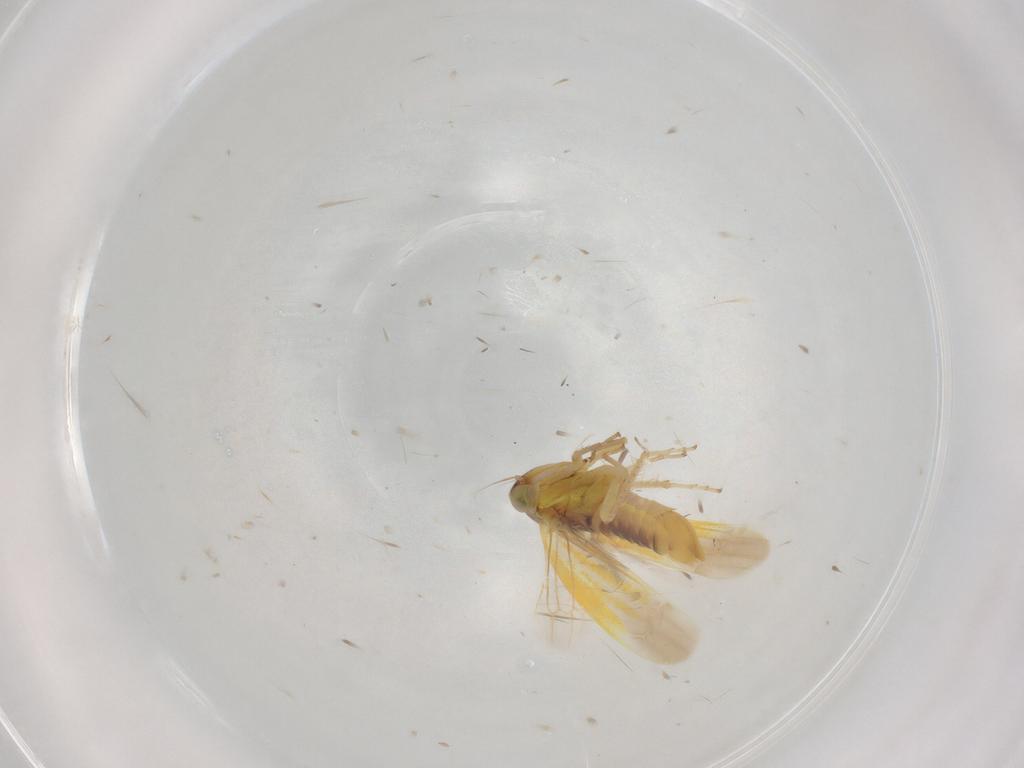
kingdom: Animalia
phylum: Arthropoda
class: Insecta
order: Hemiptera
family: Cicadellidae
